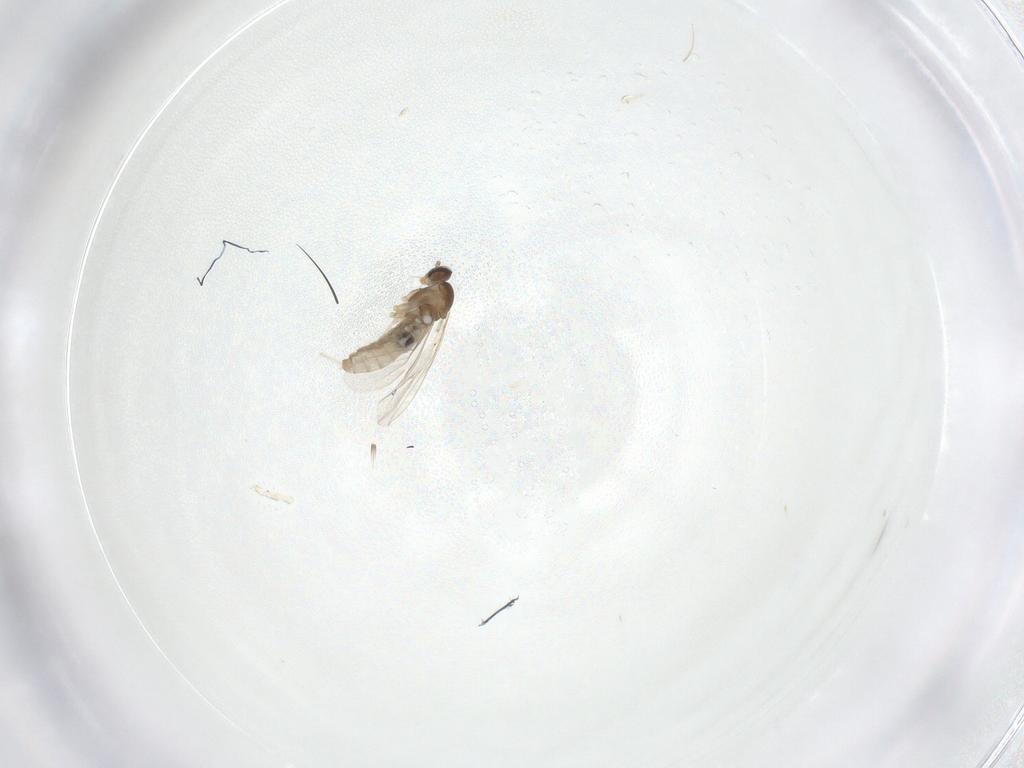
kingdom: Animalia
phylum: Arthropoda
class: Insecta
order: Diptera
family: Cecidomyiidae
